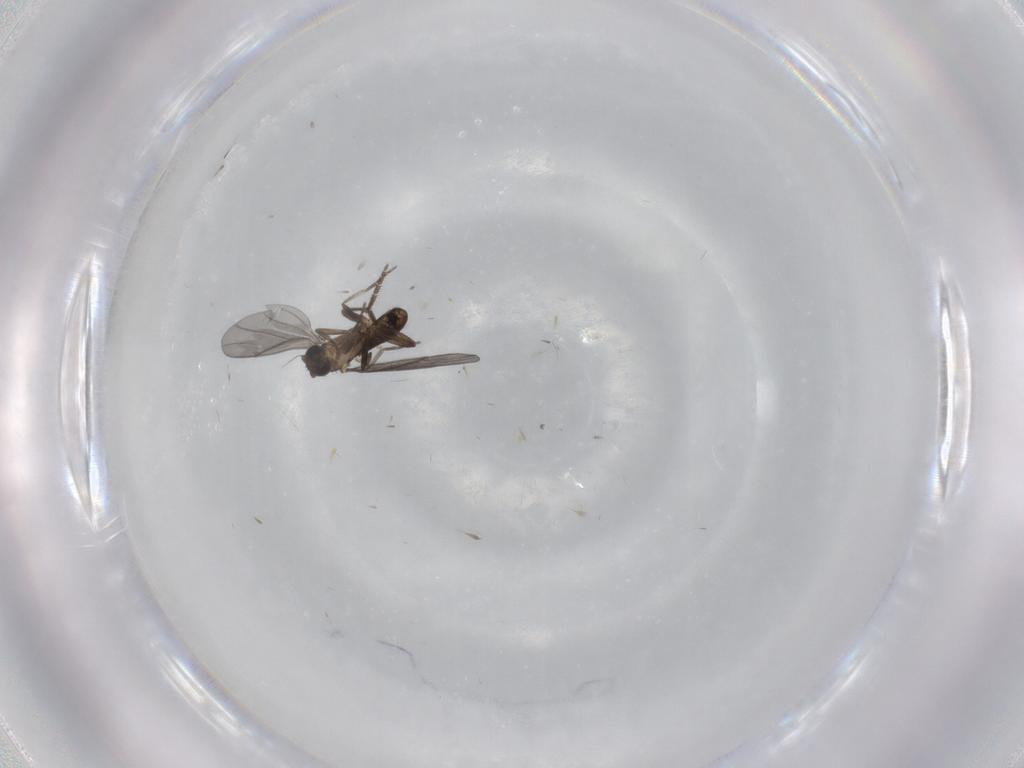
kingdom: Animalia
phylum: Arthropoda
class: Insecta
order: Diptera
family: Phoridae
